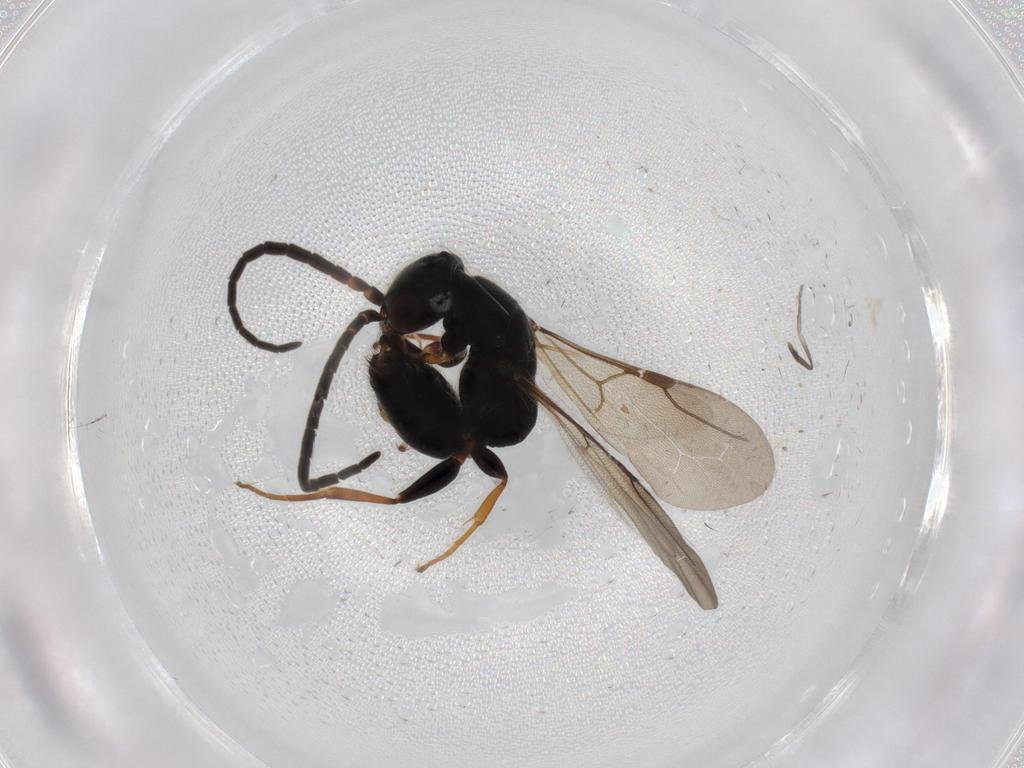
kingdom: Animalia
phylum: Arthropoda
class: Insecta
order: Hymenoptera
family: Bethylidae
